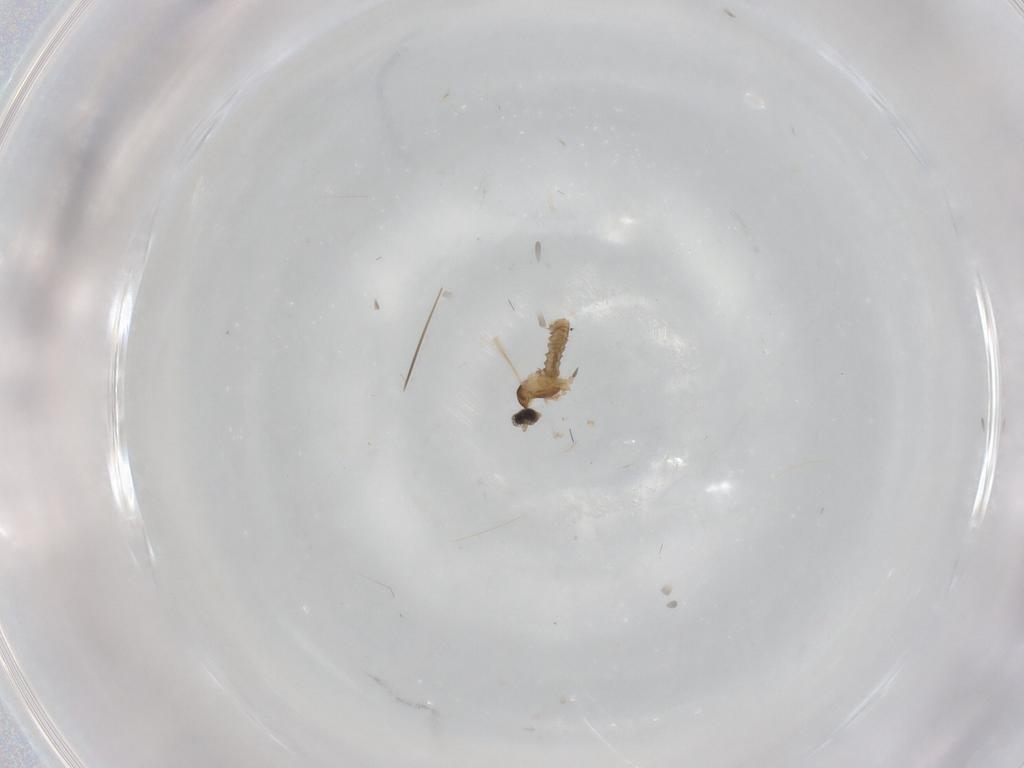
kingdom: Animalia
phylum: Arthropoda
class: Insecta
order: Diptera
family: Cecidomyiidae
